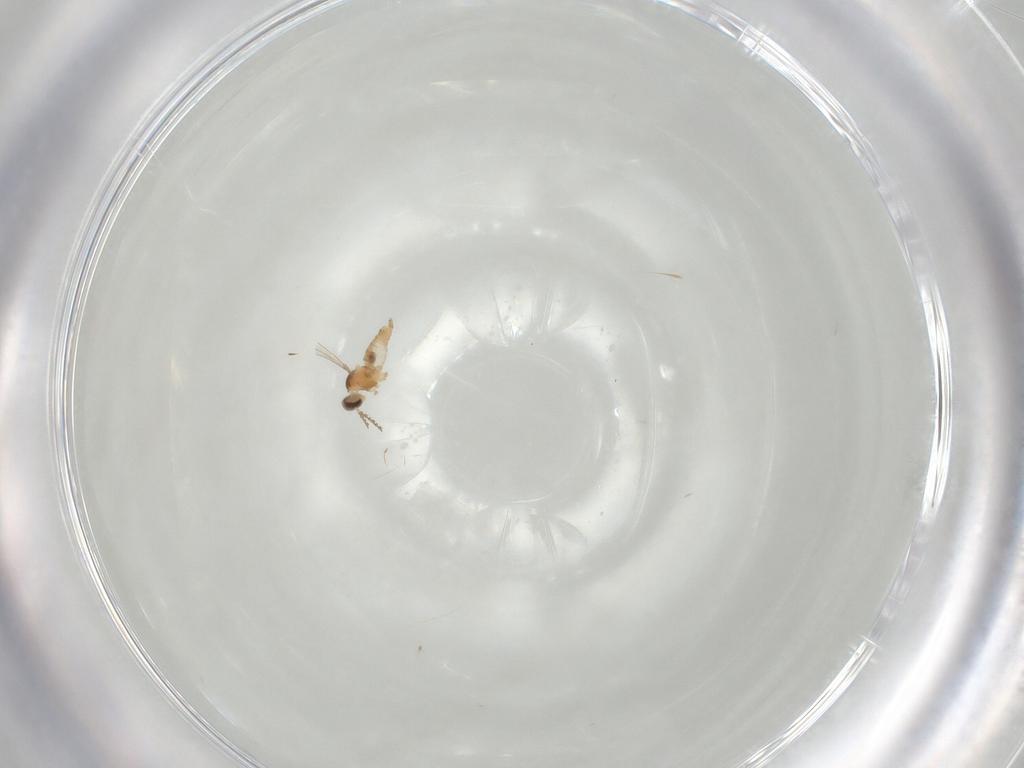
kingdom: Animalia
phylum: Arthropoda
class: Insecta
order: Diptera
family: Cecidomyiidae
